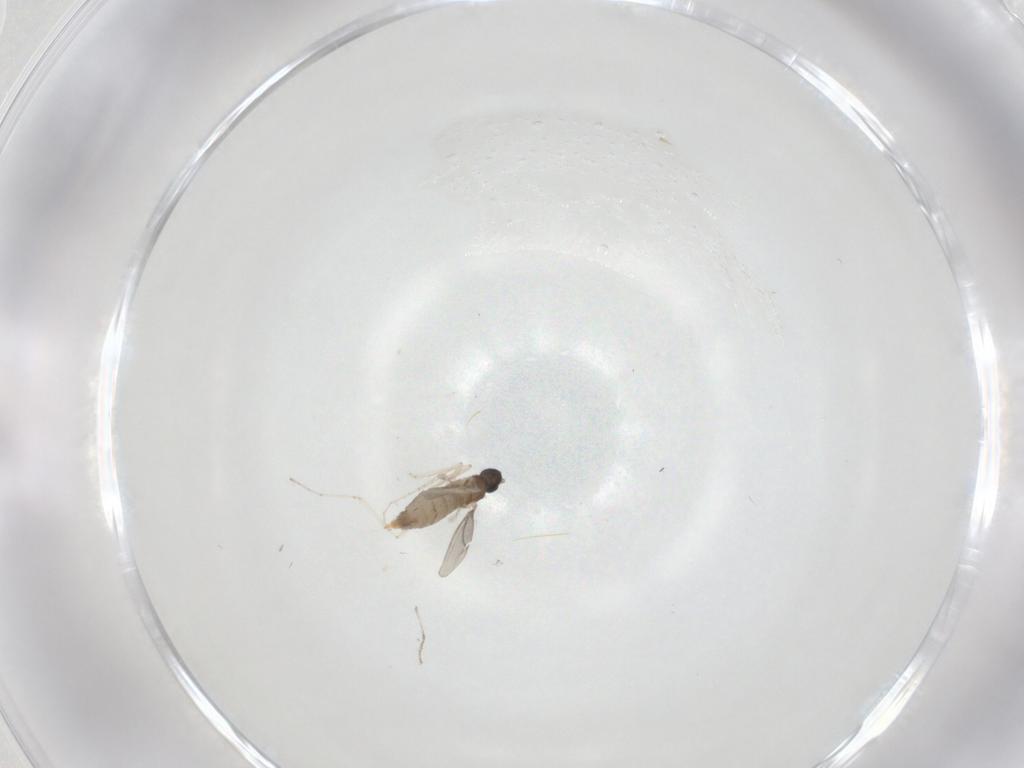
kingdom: Animalia
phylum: Arthropoda
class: Insecta
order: Diptera
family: Cecidomyiidae
